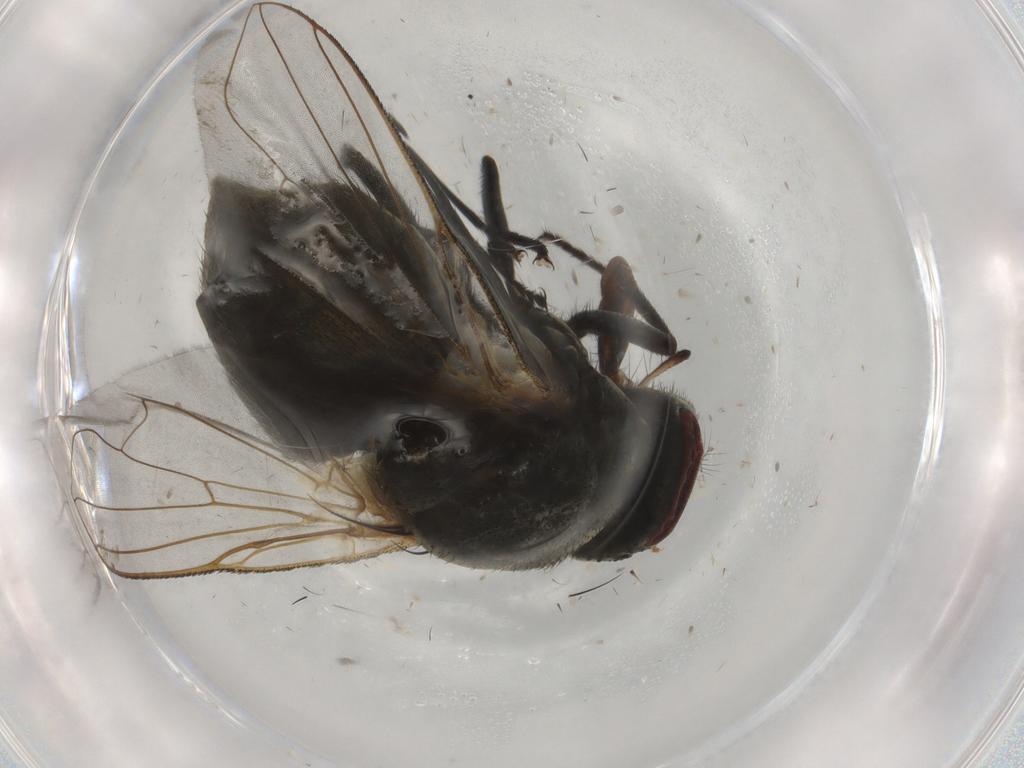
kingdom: Animalia
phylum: Arthropoda
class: Insecta
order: Diptera
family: Muscidae
